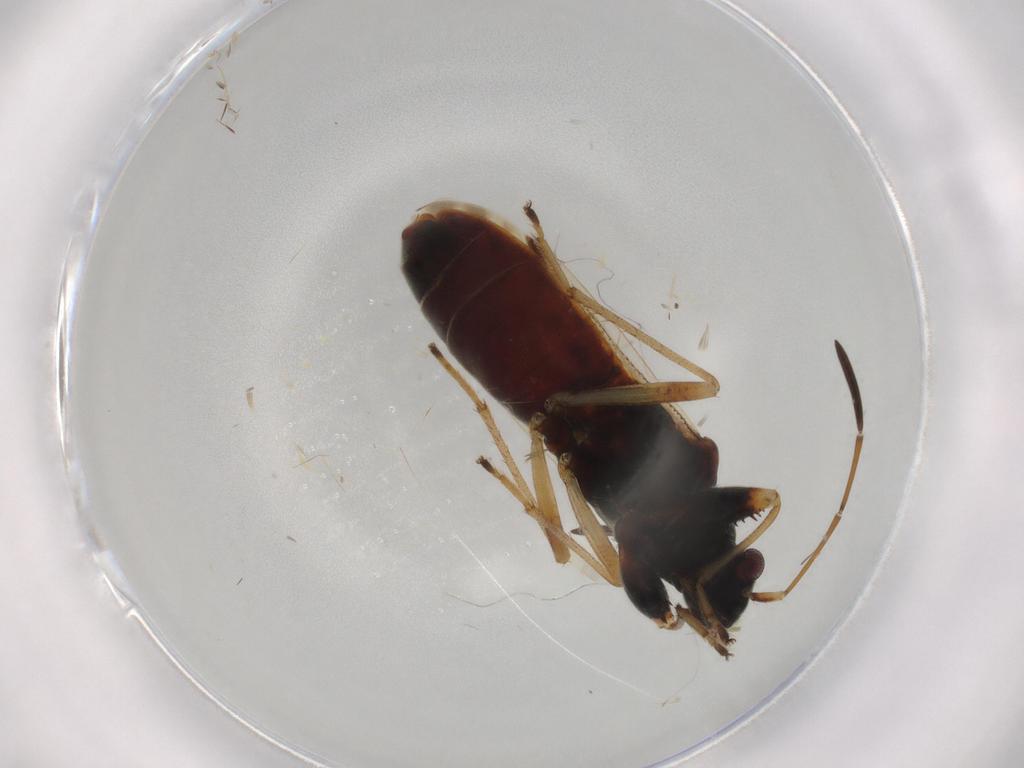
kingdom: Animalia
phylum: Arthropoda
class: Insecta
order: Hemiptera
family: Rhyparochromidae
